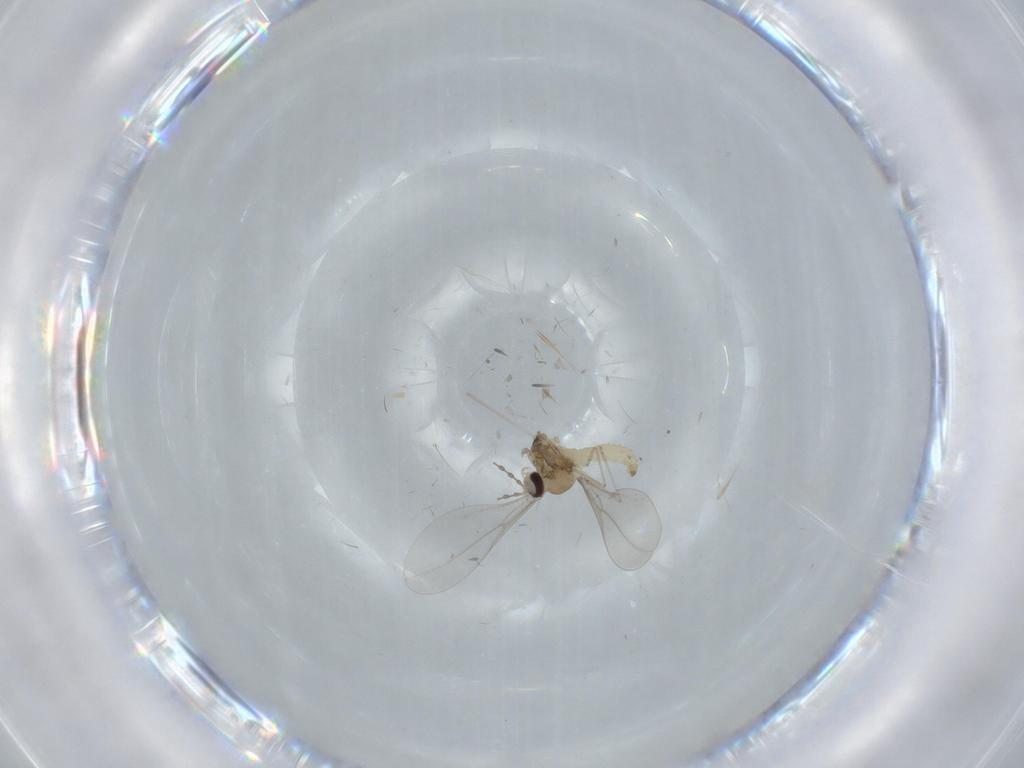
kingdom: Animalia
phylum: Arthropoda
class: Insecta
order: Diptera
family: Cecidomyiidae
